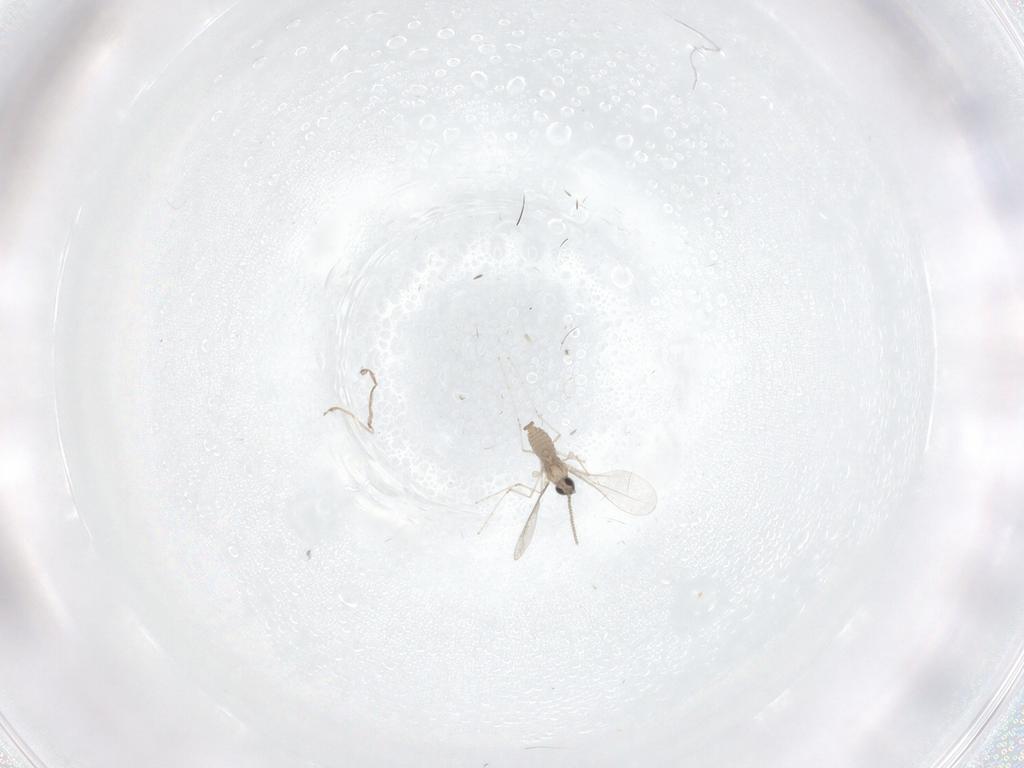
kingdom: Animalia
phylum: Arthropoda
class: Insecta
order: Diptera
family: Cecidomyiidae
